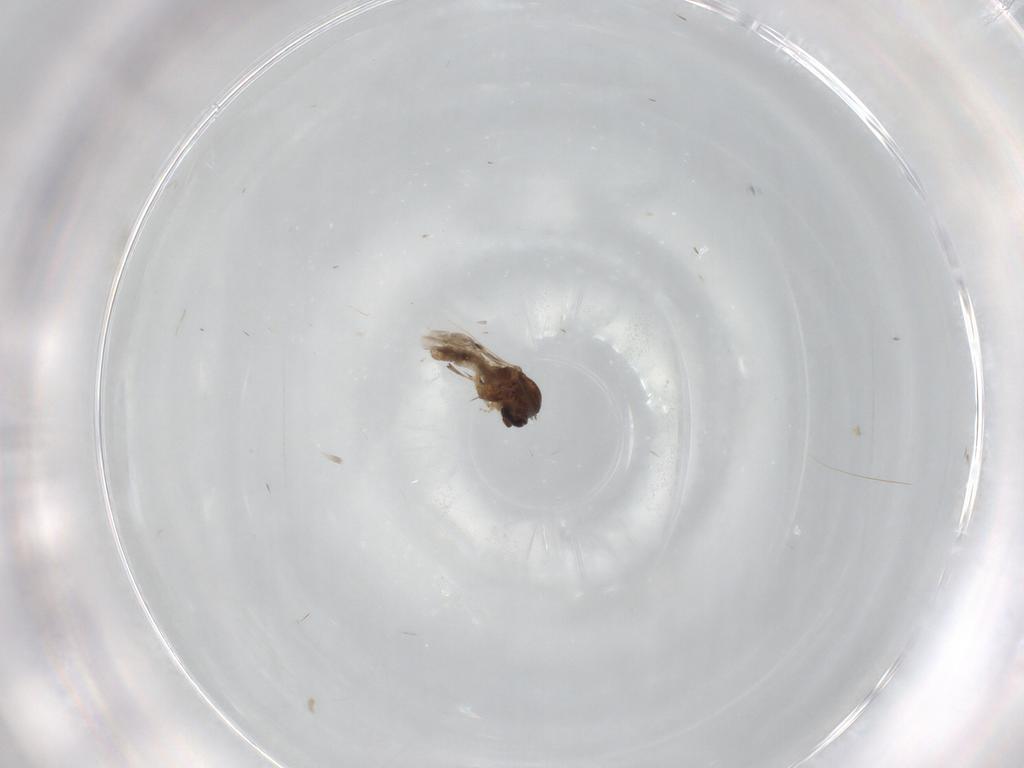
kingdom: Animalia
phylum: Arthropoda
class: Insecta
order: Diptera
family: Ceratopogonidae
